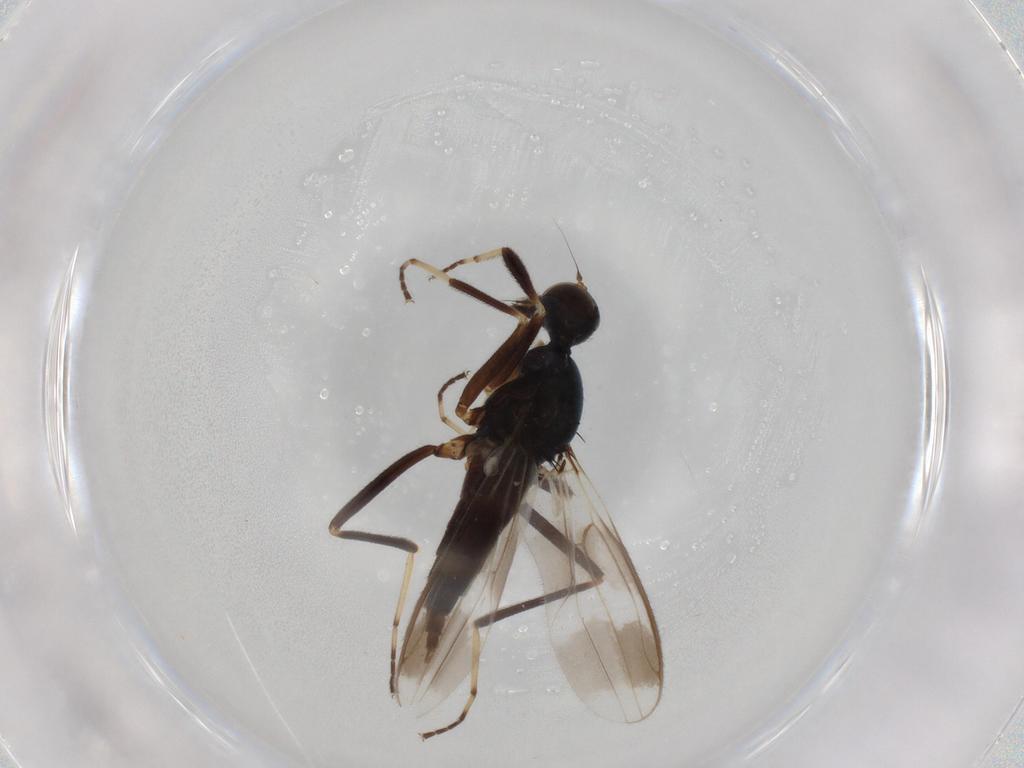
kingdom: Animalia
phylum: Arthropoda
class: Insecta
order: Diptera
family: Hybotidae
